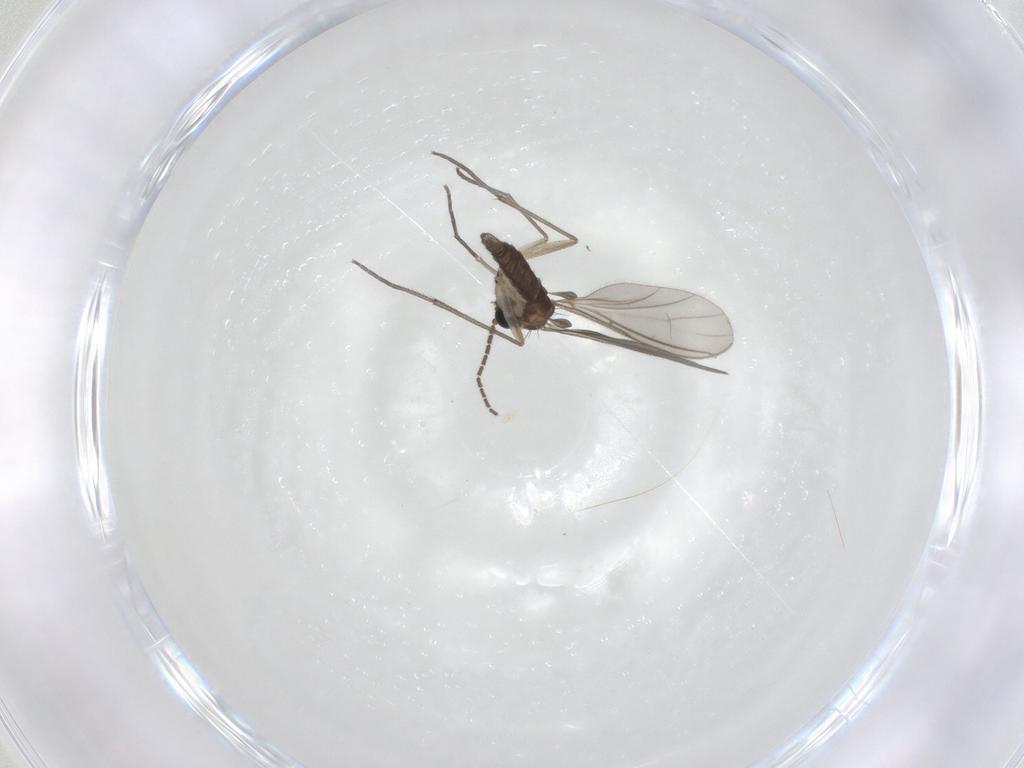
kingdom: Animalia
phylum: Arthropoda
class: Insecta
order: Diptera
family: Sciaridae
